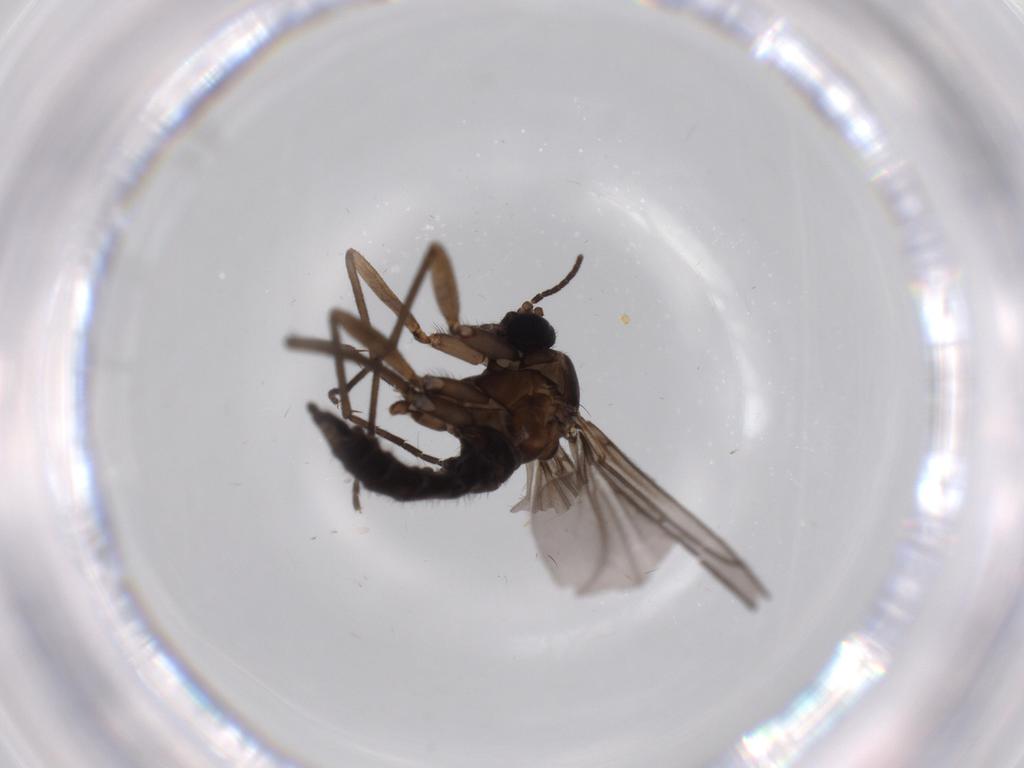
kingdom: Animalia
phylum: Arthropoda
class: Insecta
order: Diptera
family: Sciaridae
